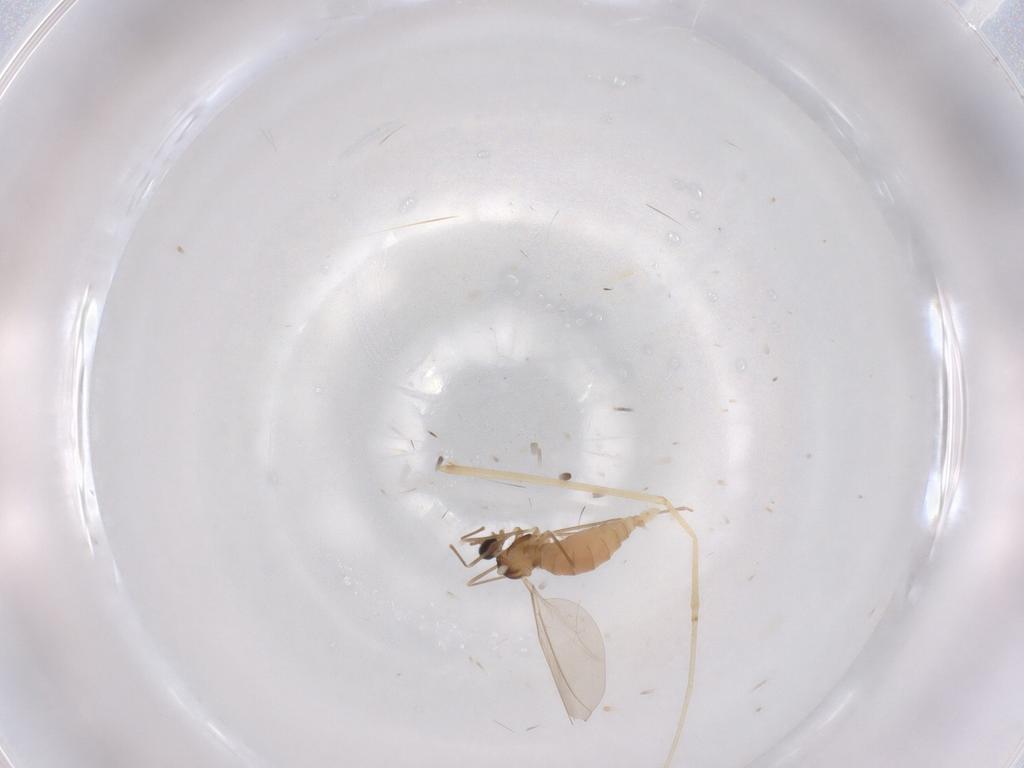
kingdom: Animalia
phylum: Arthropoda
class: Insecta
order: Diptera
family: Cecidomyiidae
